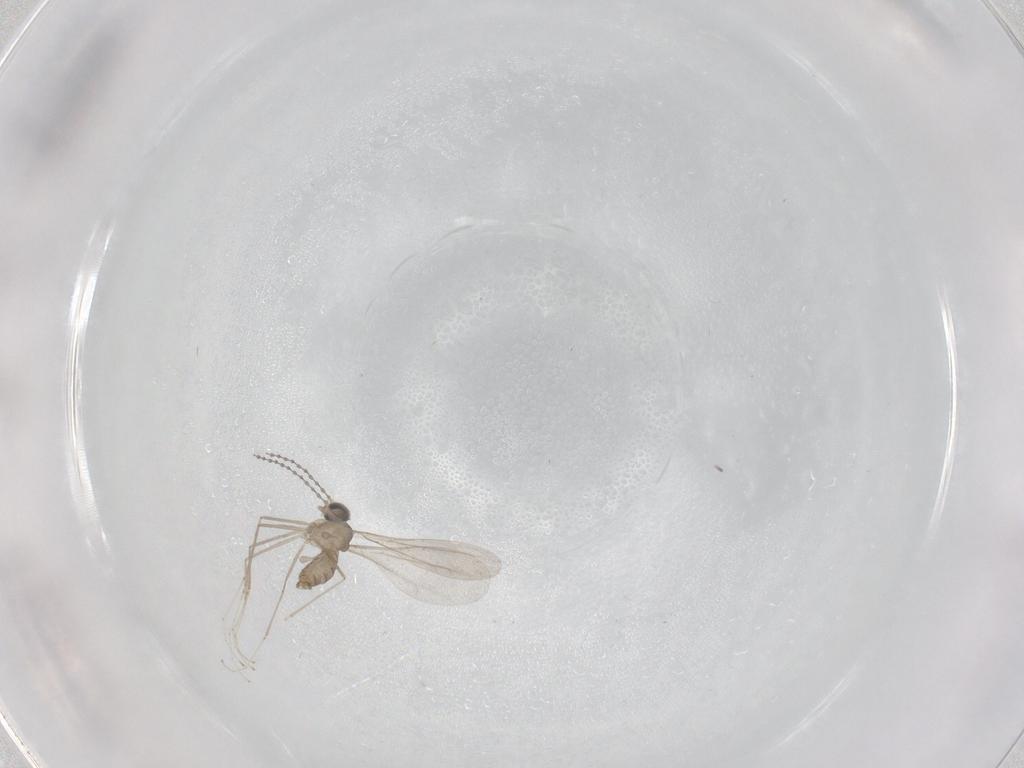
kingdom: Animalia
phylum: Arthropoda
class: Insecta
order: Diptera
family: Cecidomyiidae
